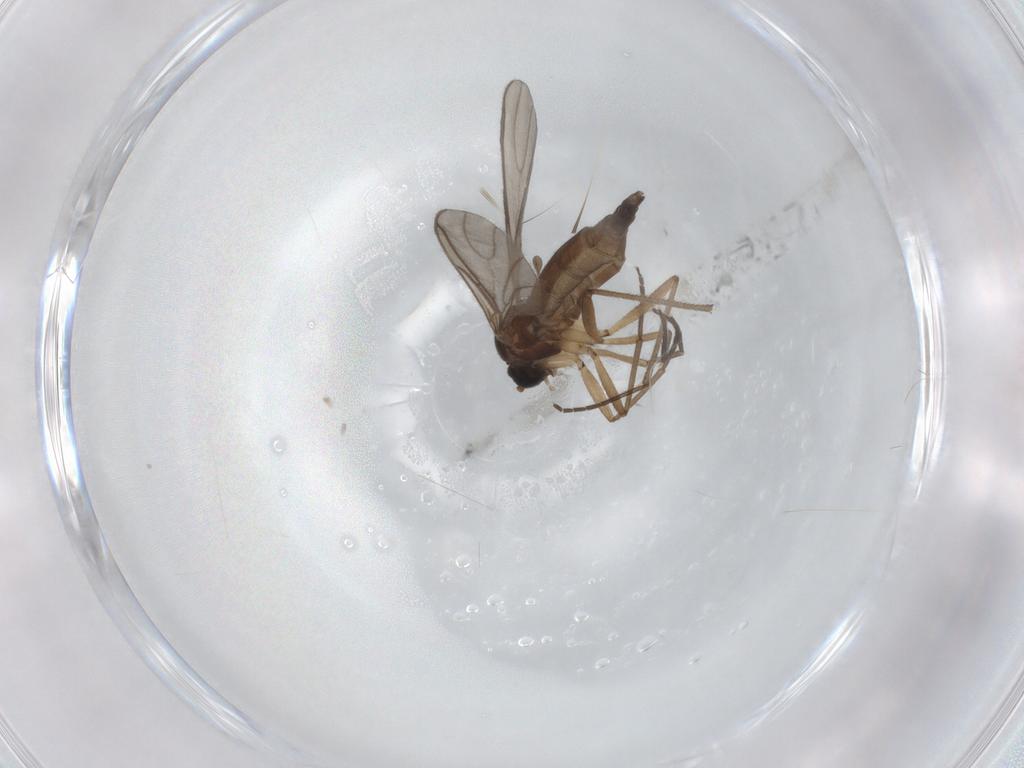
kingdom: Animalia
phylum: Arthropoda
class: Insecta
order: Diptera
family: Sciaridae
